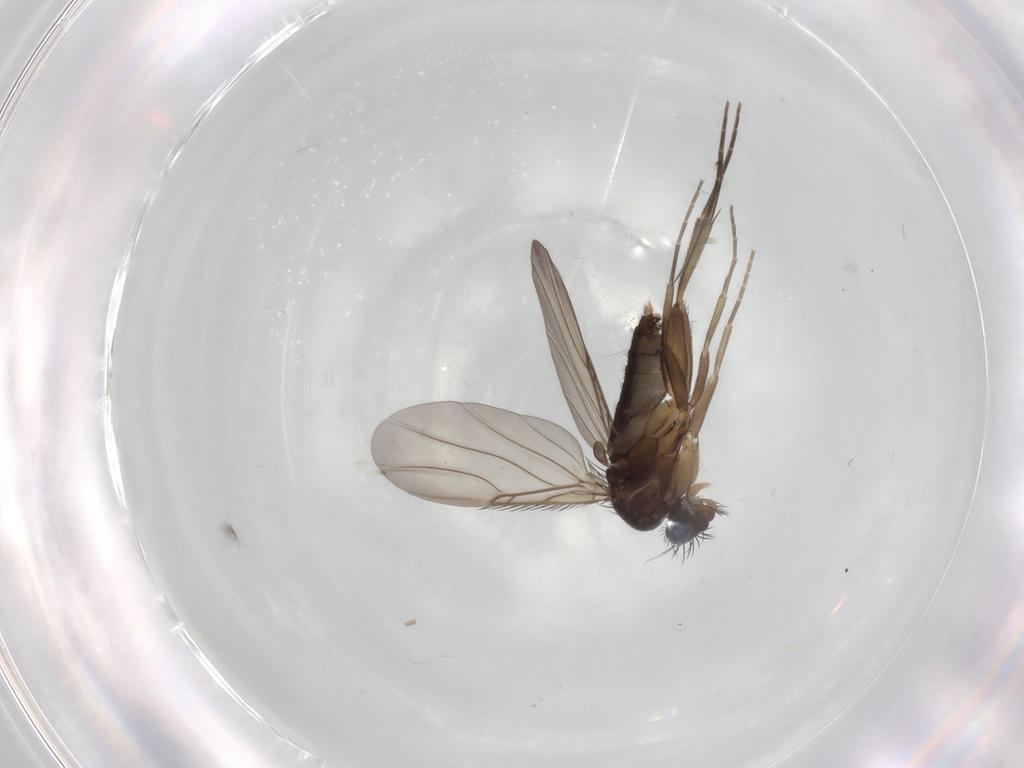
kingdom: Animalia
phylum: Arthropoda
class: Insecta
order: Diptera
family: Phoridae
